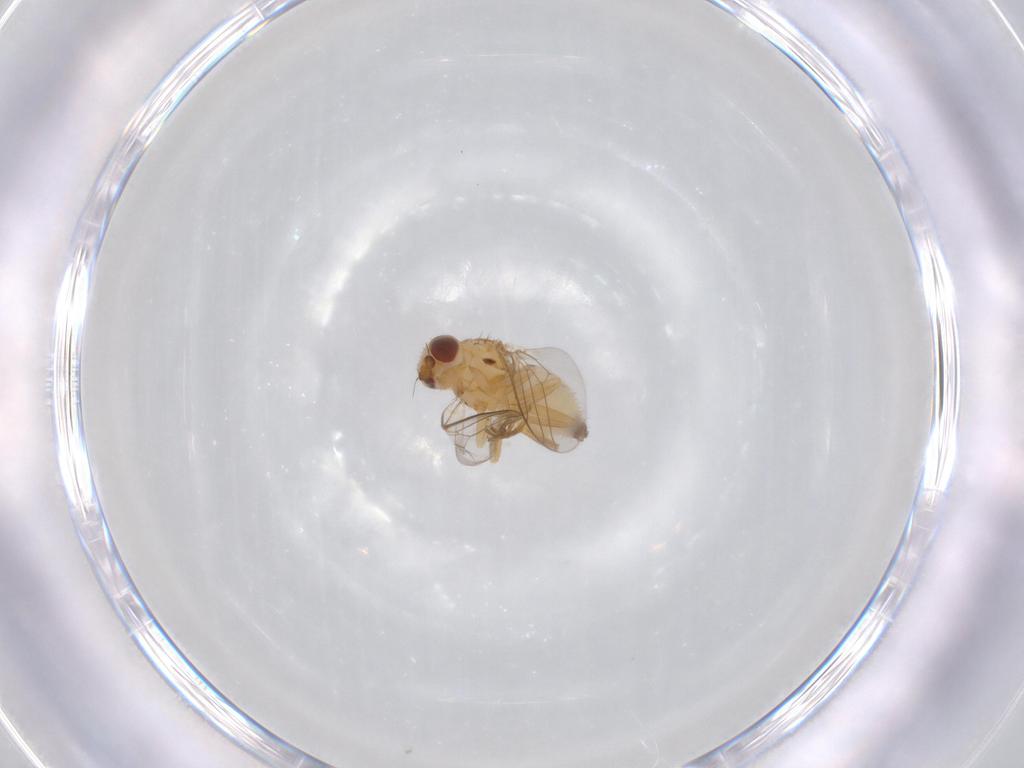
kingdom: Animalia
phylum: Arthropoda
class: Insecta
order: Diptera
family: Chloropidae
